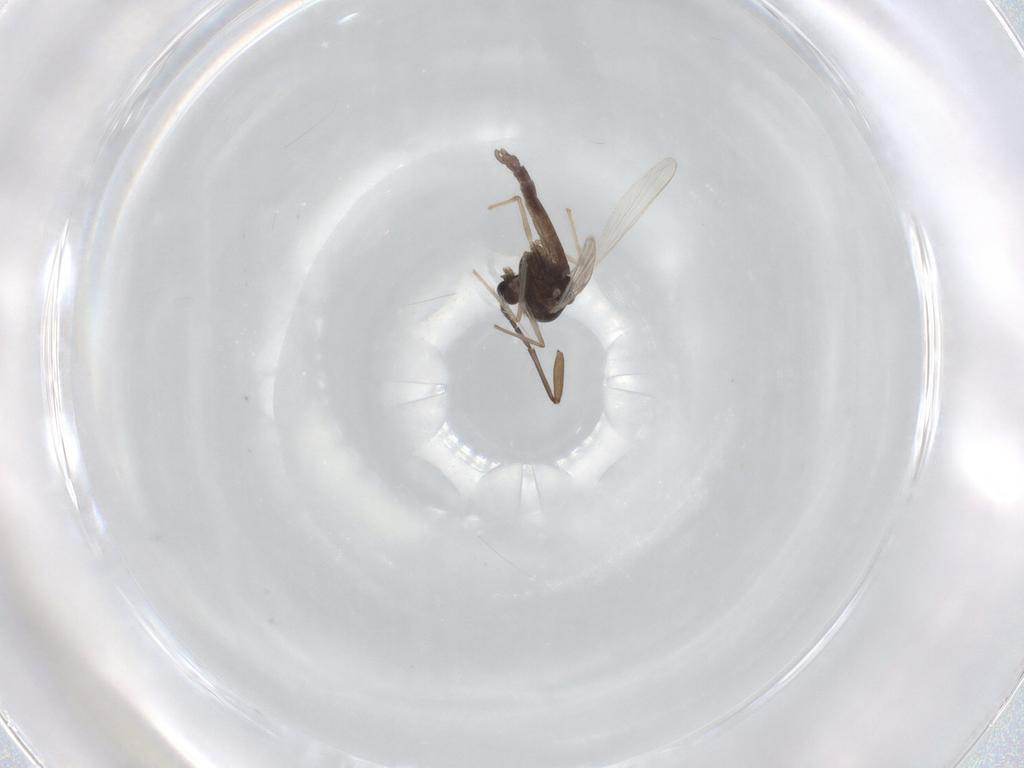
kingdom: Animalia
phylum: Arthropoda
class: Insecta
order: Diptera
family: Chironomidae
